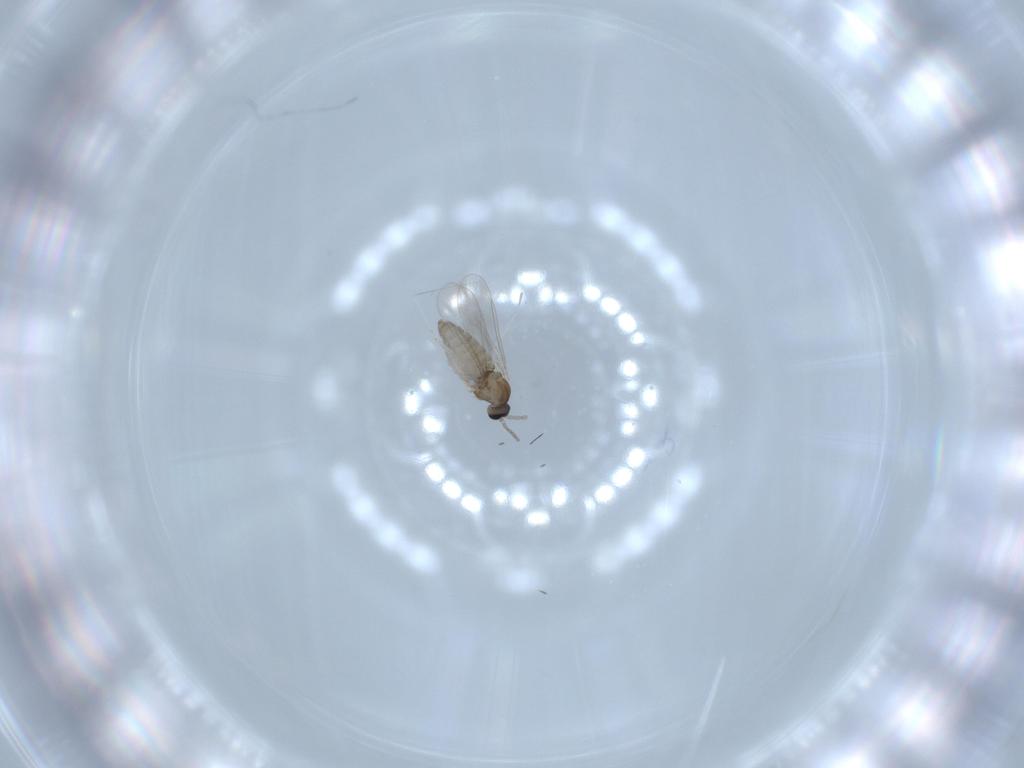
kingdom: Animalia
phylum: Arthropoda
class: Insecta
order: Diptera
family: Cecidomyiidae
